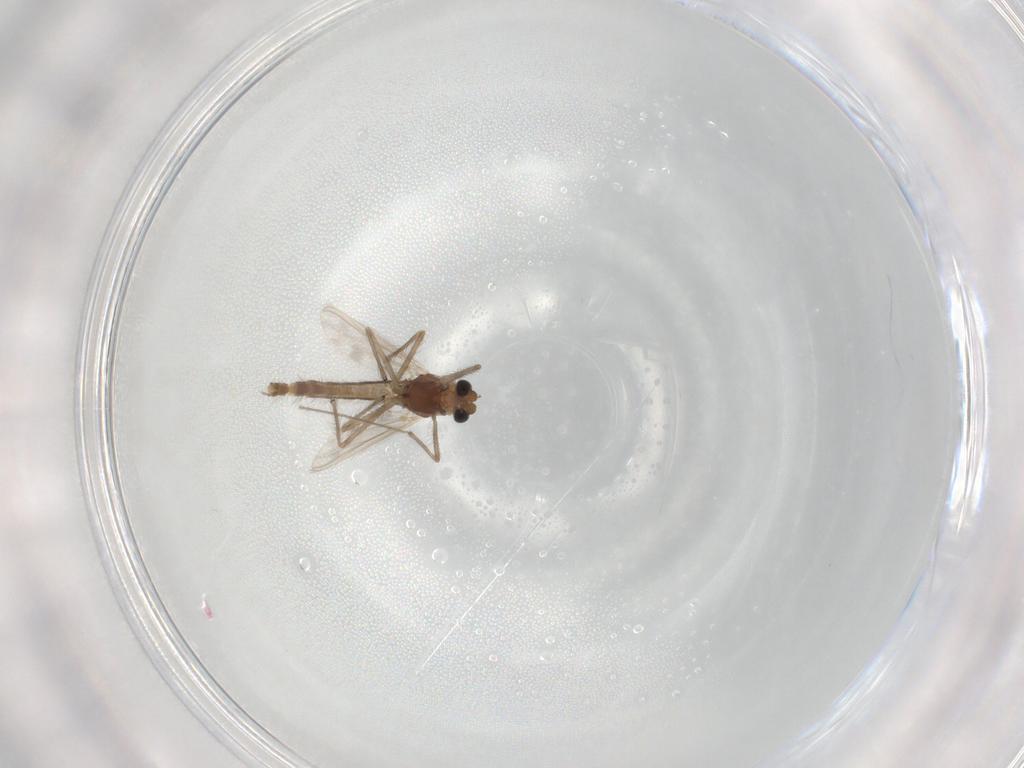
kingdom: Animalia
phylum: Arthropoda
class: Insecta
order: Diptera
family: Chironomidae
